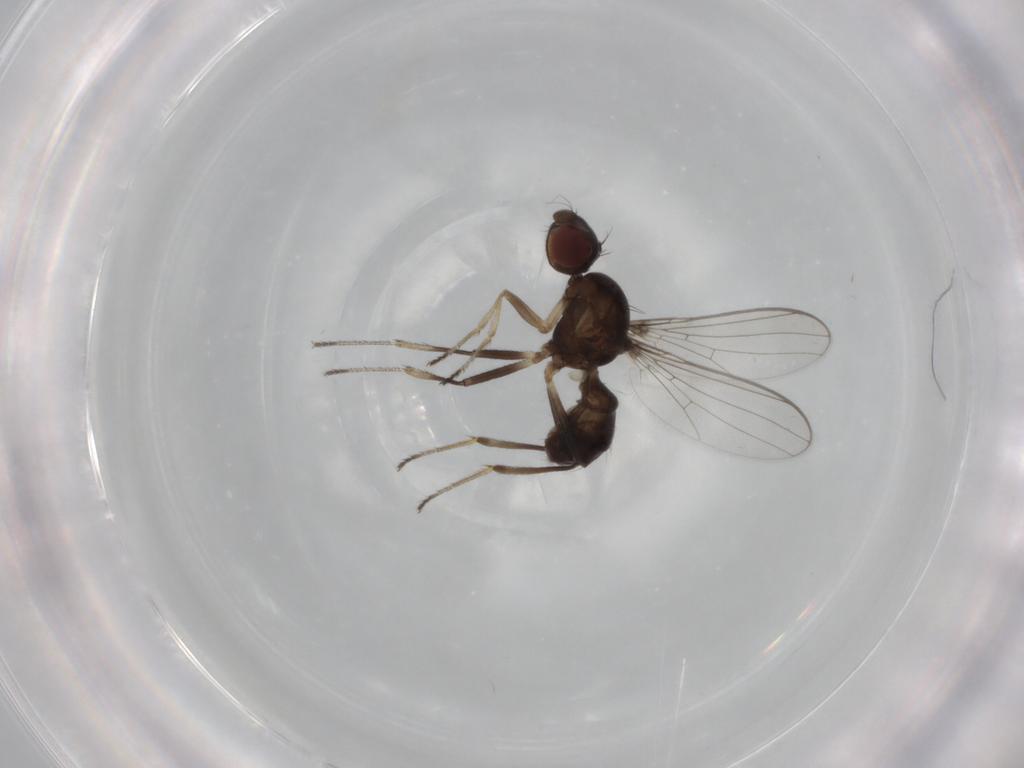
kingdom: Animalia
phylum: Arthropoda
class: Insecta
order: Diptera
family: Sepsidae
